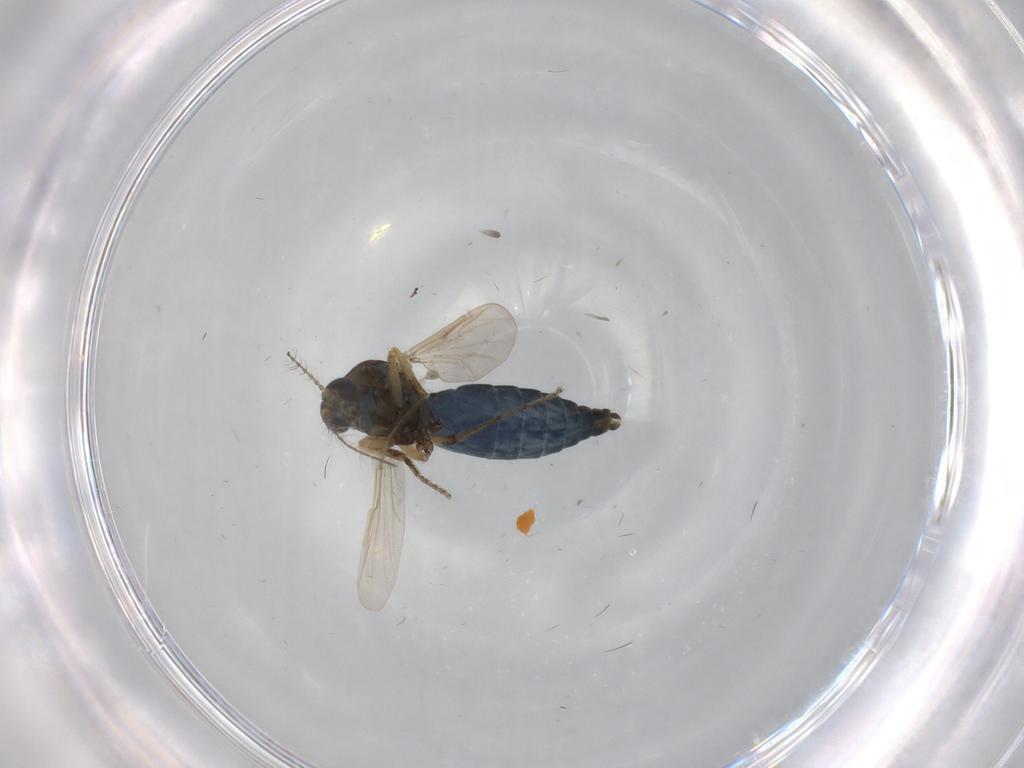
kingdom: Animalia
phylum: Arthropoda
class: Insecta
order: Diptera
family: Ceratopogonidae
